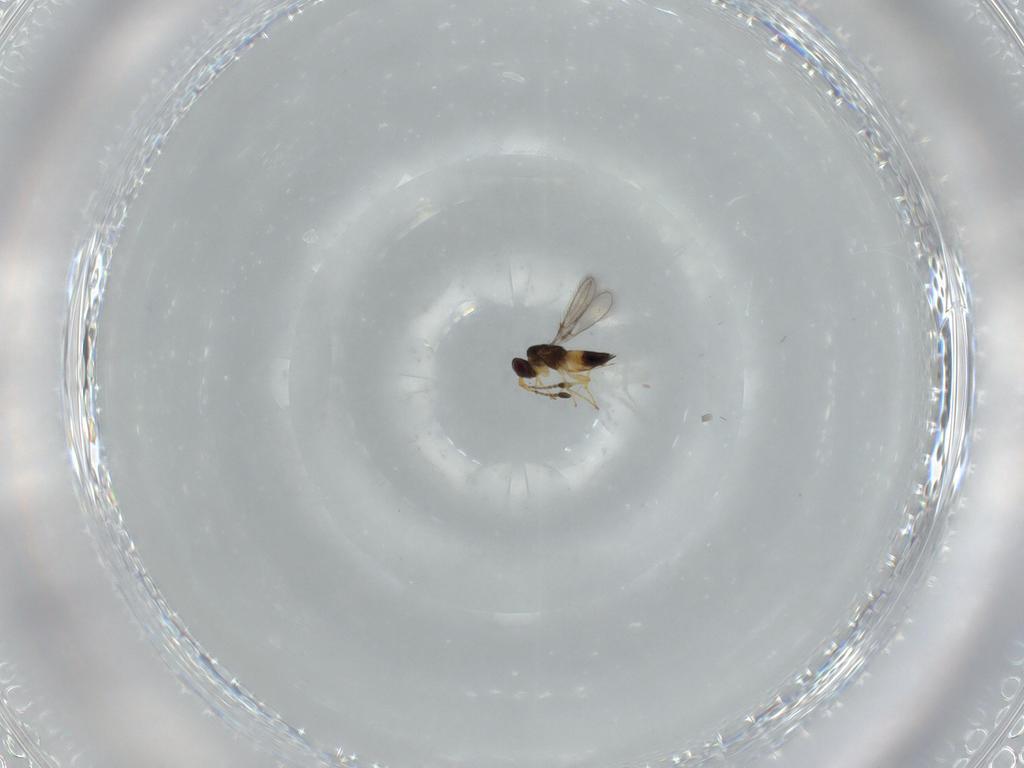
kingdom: Animalia
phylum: Arthropoda
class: Insecta
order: Hymenoptera
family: Mymaridae
